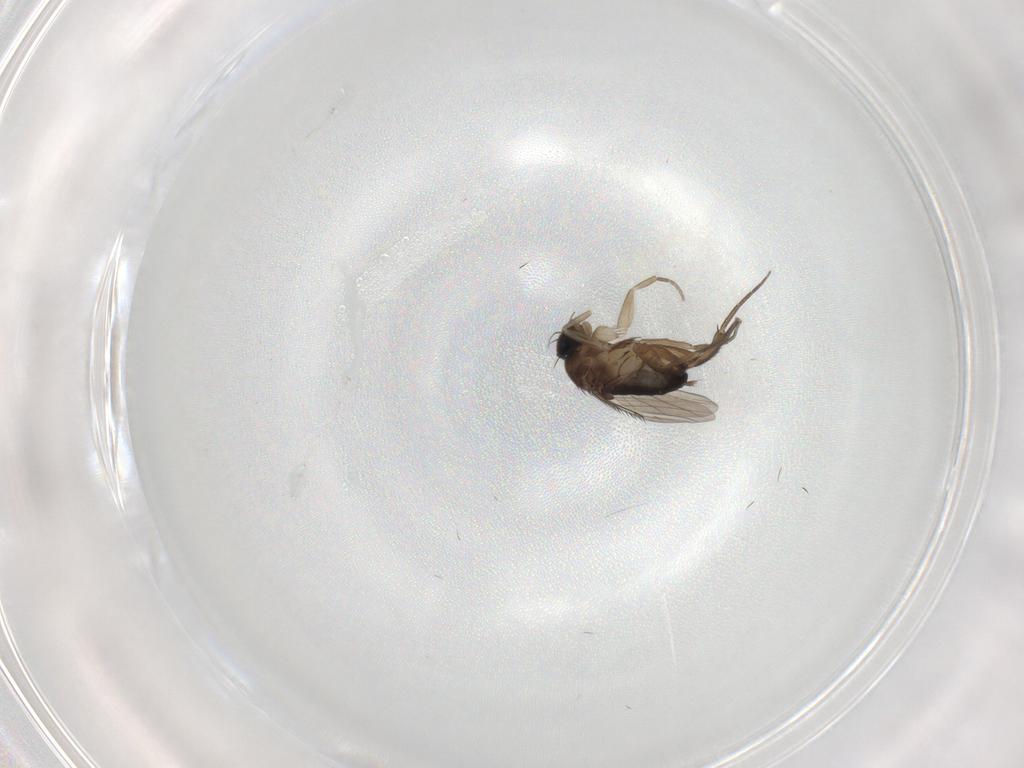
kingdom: Animalia
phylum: Arthropoda
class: Insecta
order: Diptera
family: Phoridae
